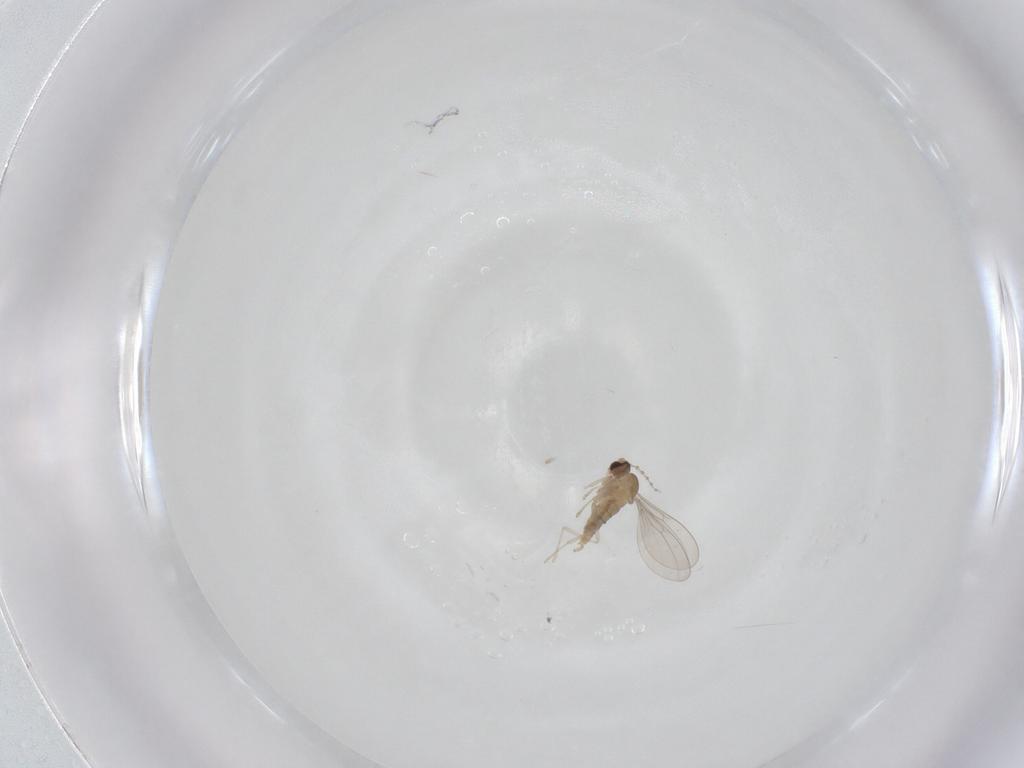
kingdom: Animalia
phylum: Arthropoda
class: Insecta
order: Diptera
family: Cecidomyiidae
